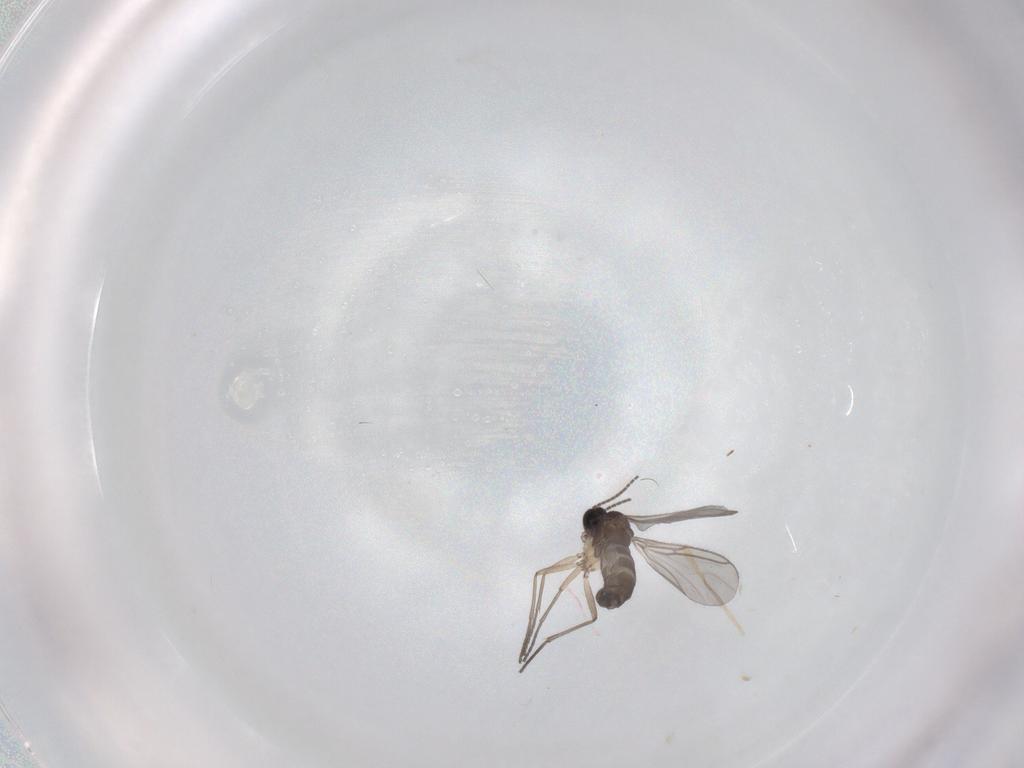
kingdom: Animalia
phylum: Arthropoda
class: Insecta
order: Diptera
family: Sciaridae
